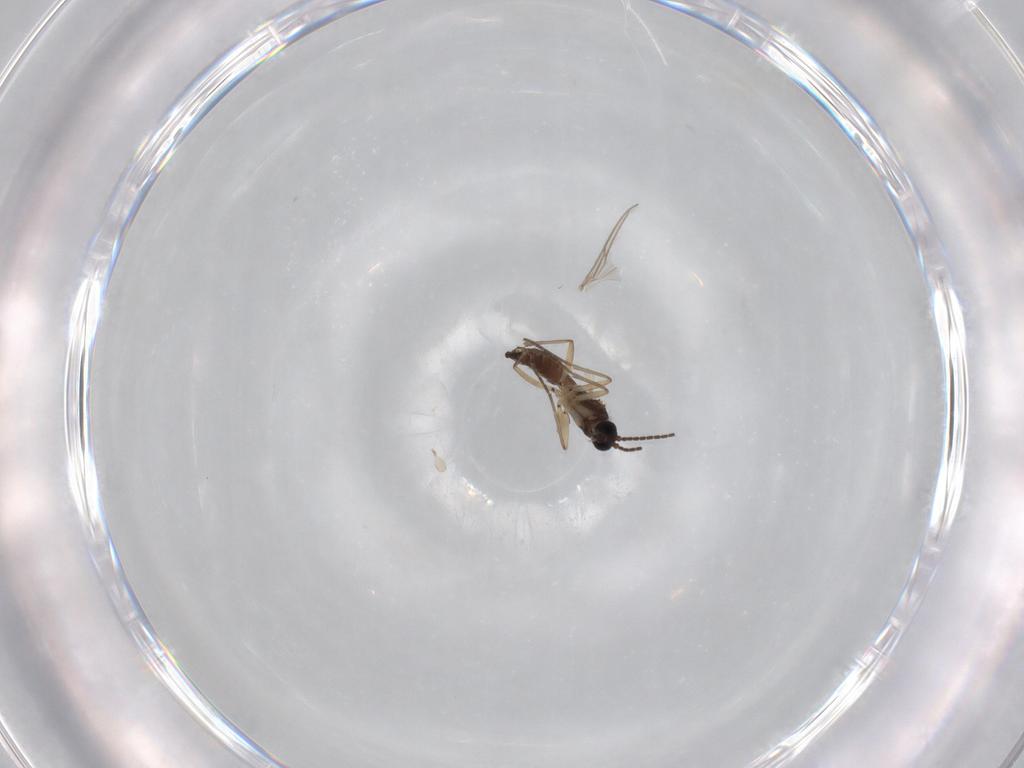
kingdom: Animalia
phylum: Arthropoda
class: Insecta
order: Diptera
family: Sciaridae
